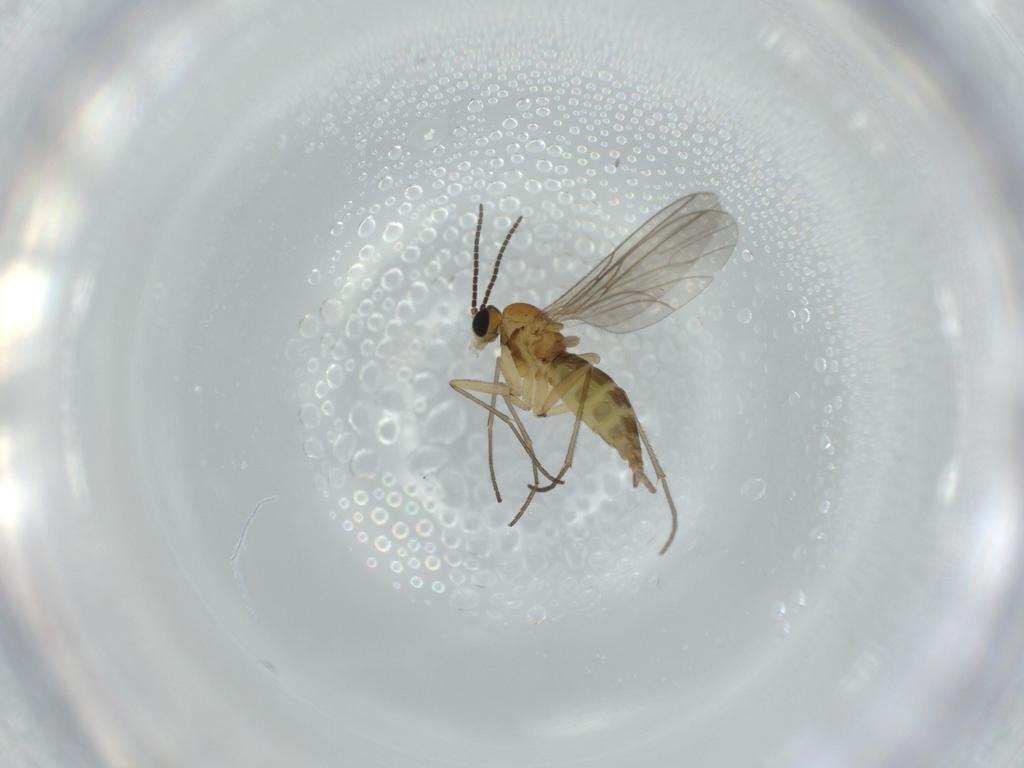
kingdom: Animalia
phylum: Arthropoda
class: Insecta
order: Diptera
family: Sciaridae
